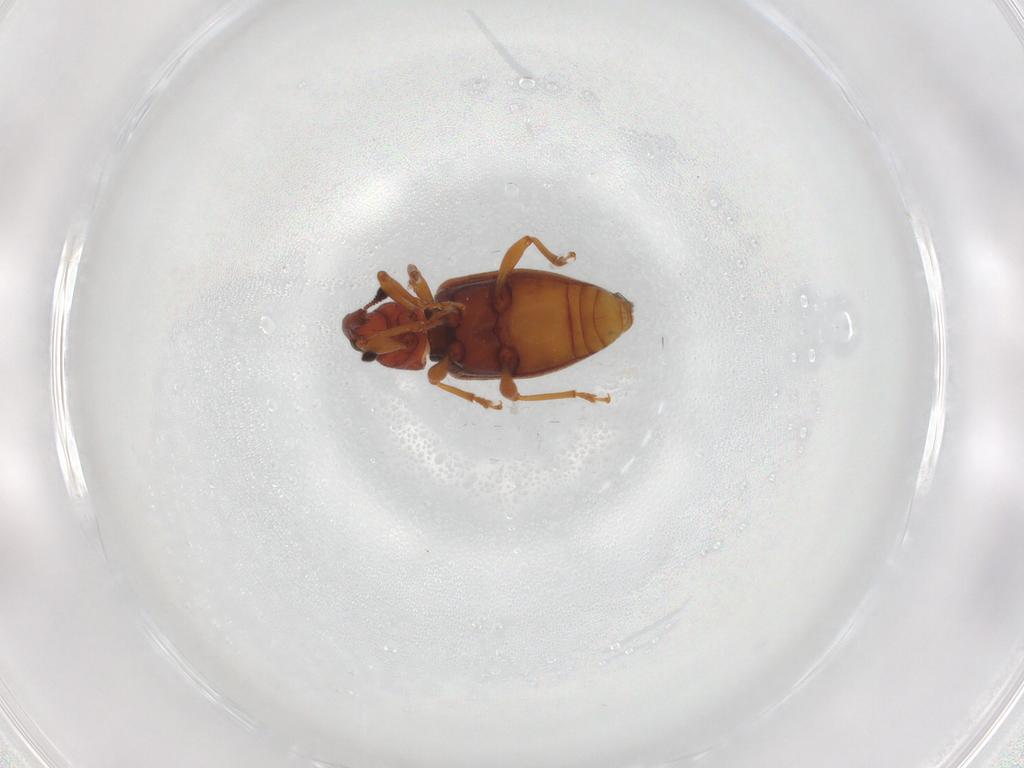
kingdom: Animalia
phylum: Arthropoda
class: Insecta
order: Coleoptera
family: Curculionidae
